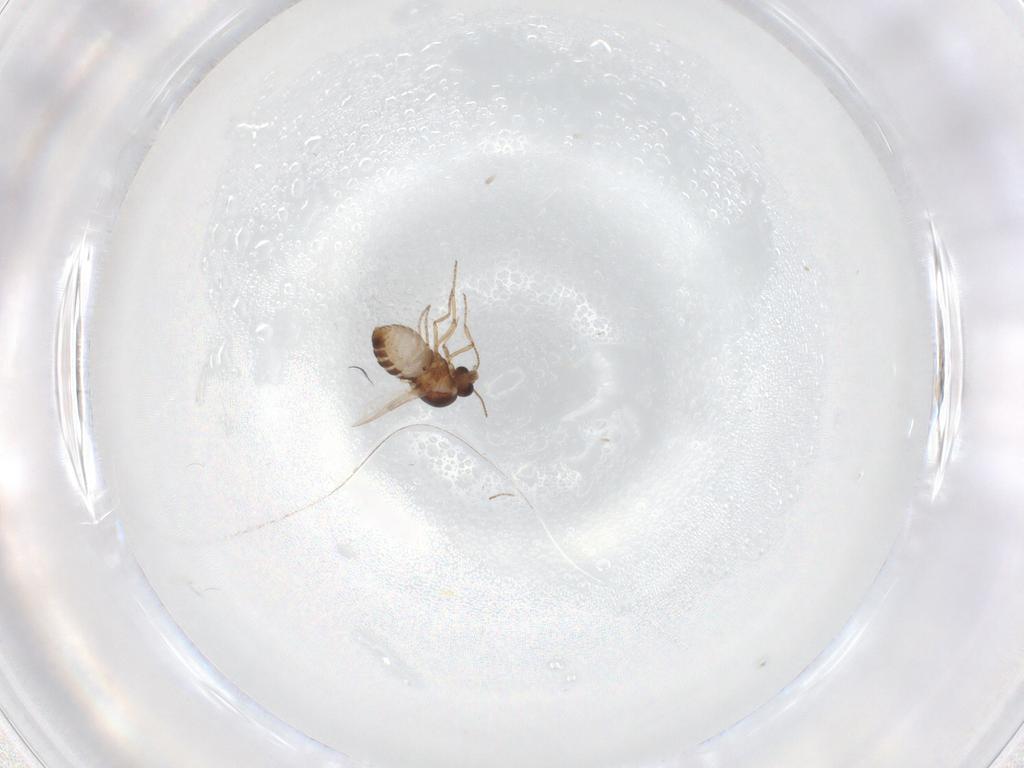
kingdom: Animalia
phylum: Arthropoda
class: Insecta
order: Diptera
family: Ceratopogonidae
